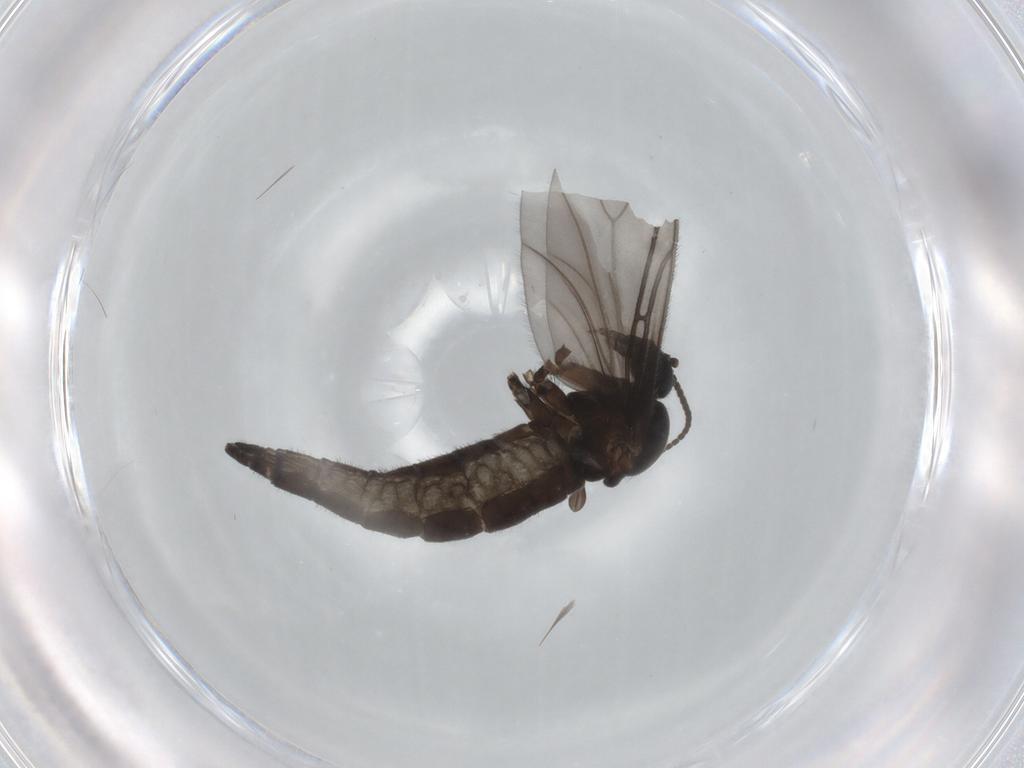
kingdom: Animalia
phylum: Arthropoda
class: Insecta
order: Diptera
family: Sciaridae
